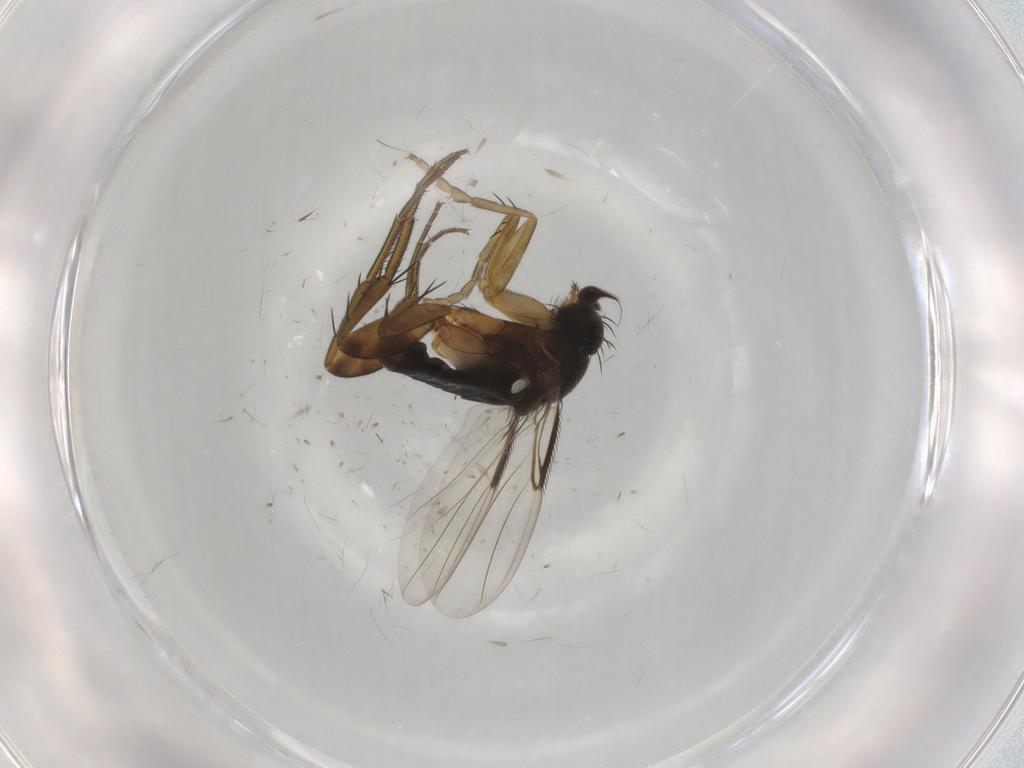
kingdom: Animalia
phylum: Arthropoda
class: Insecta
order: Diptera
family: Phoridae
